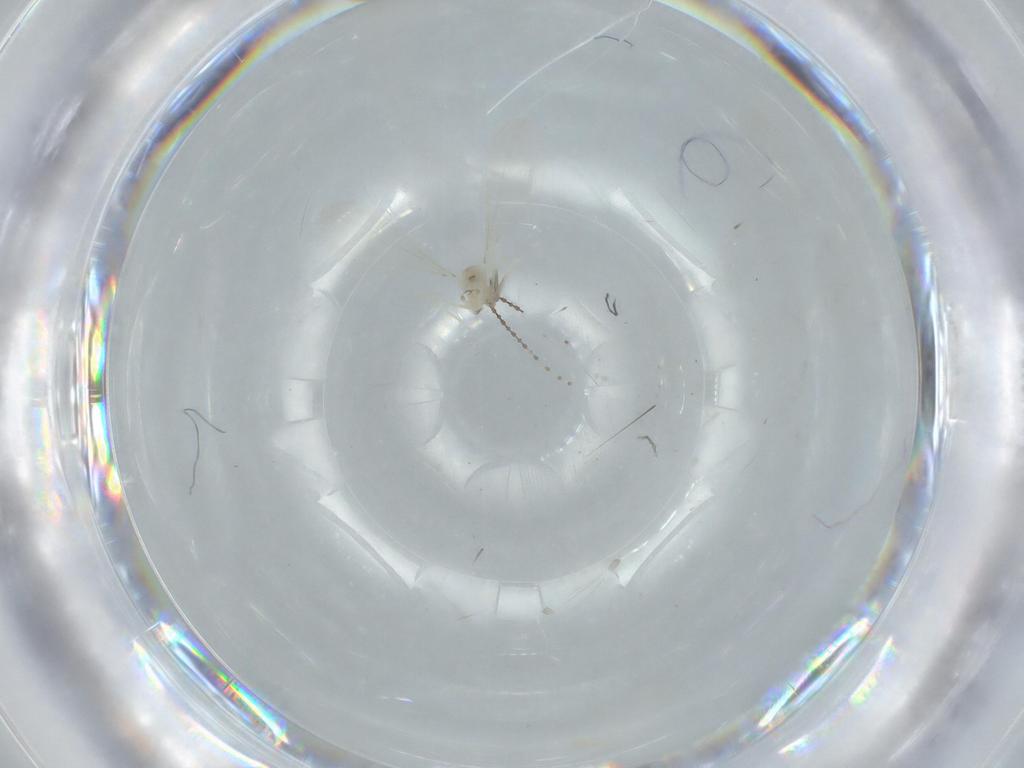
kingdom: Animalia
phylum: Arthropoda
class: Insecta
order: Diptera
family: Cecidomyiidae
